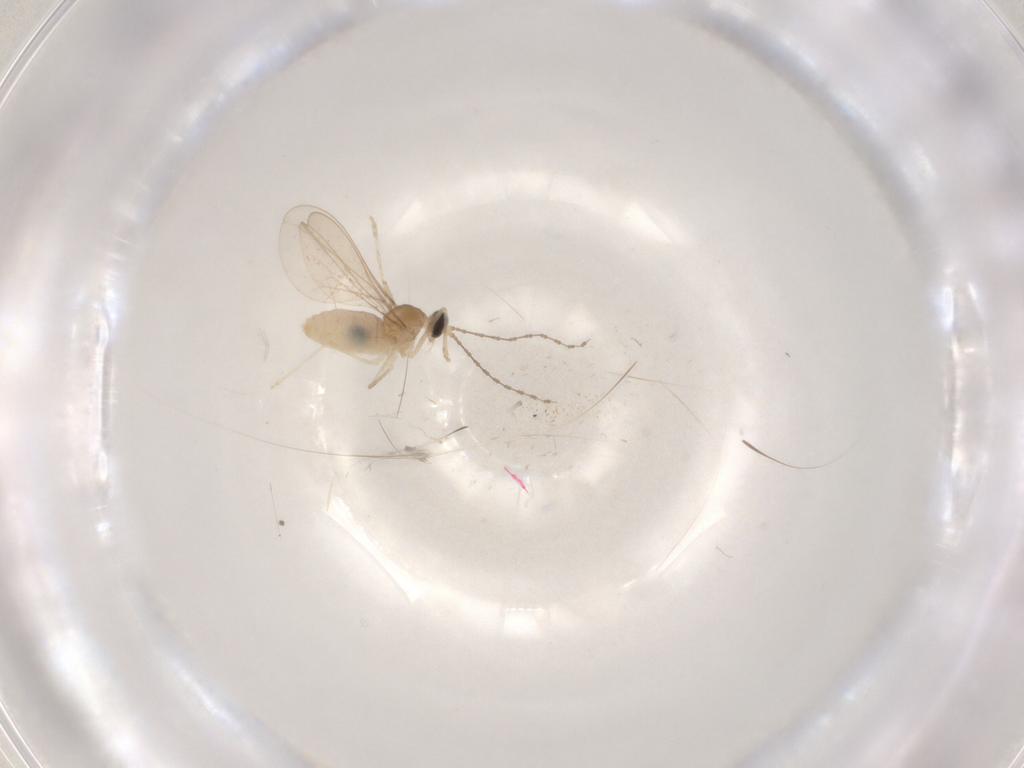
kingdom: Animalia
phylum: Arthropoda
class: Insecta
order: Diptera
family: Cecidomyiidae
